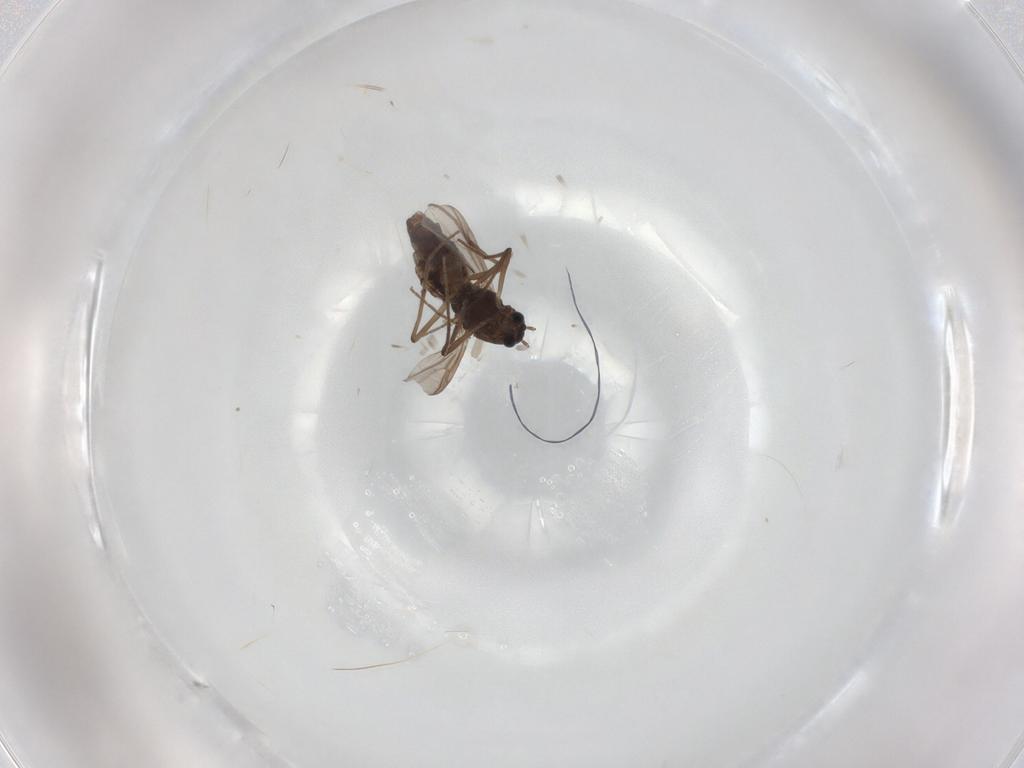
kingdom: Animalia
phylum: Arthropoda
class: Insecta
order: Diptera
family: Chironomidae
